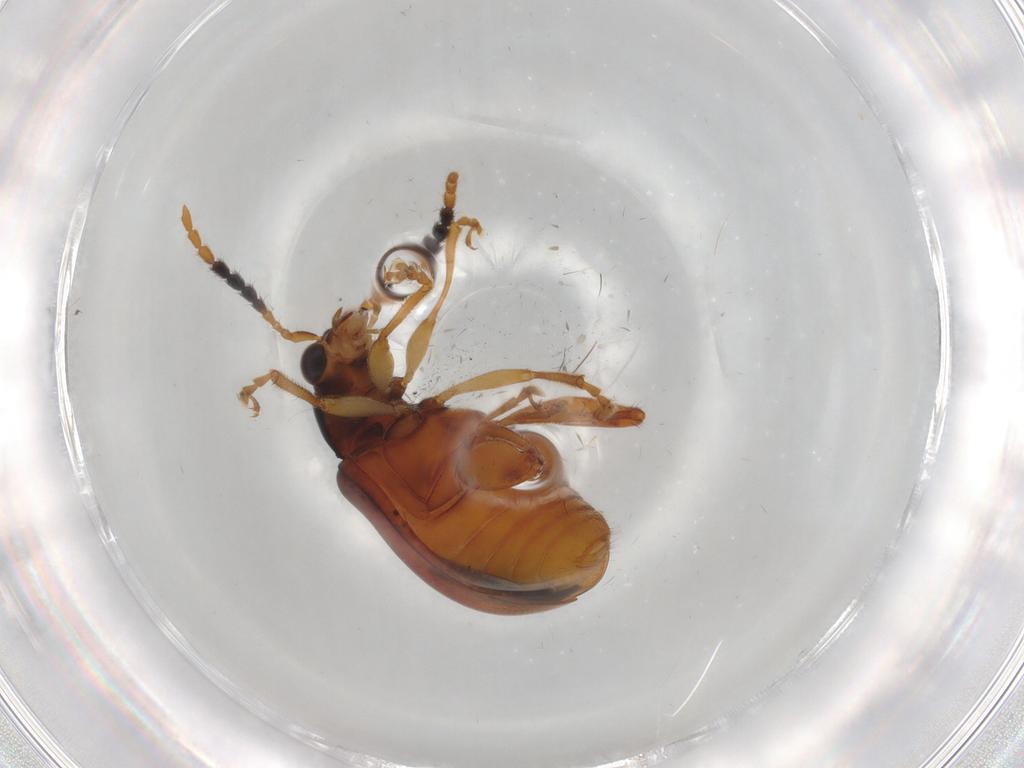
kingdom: Animalia
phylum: Arthropoda
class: Insecta
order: Coleoptera
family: Chrysomelidae
